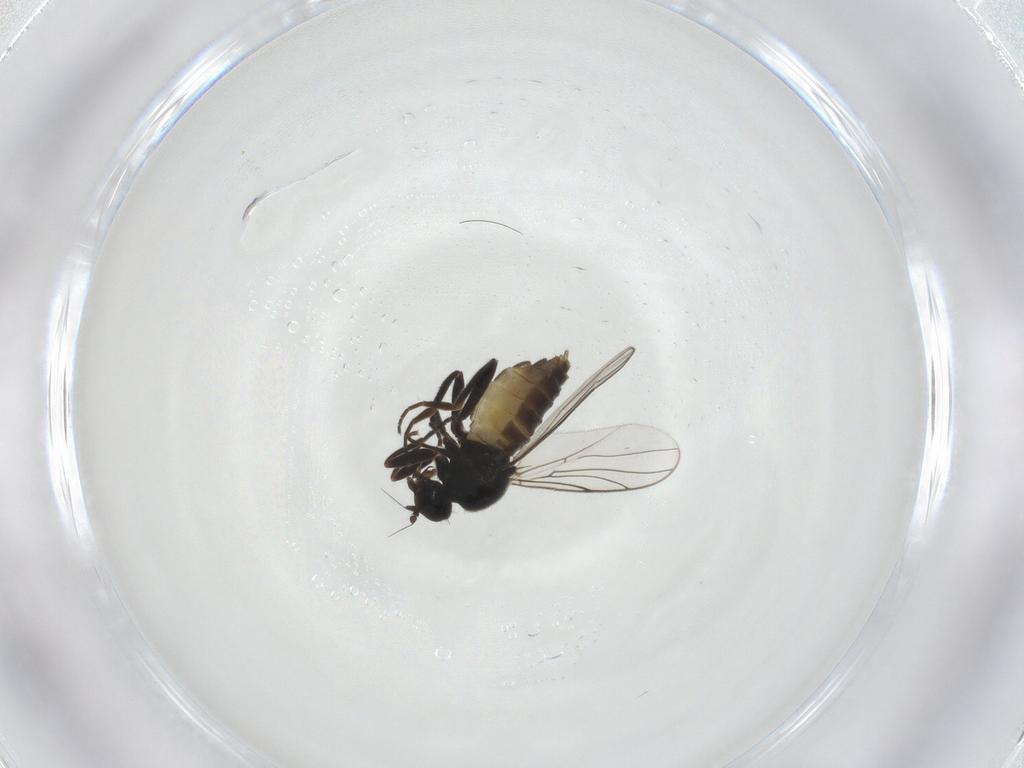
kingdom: Animalia
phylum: Arthropoda
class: Insecta
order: Diptera
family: Hybotidae
